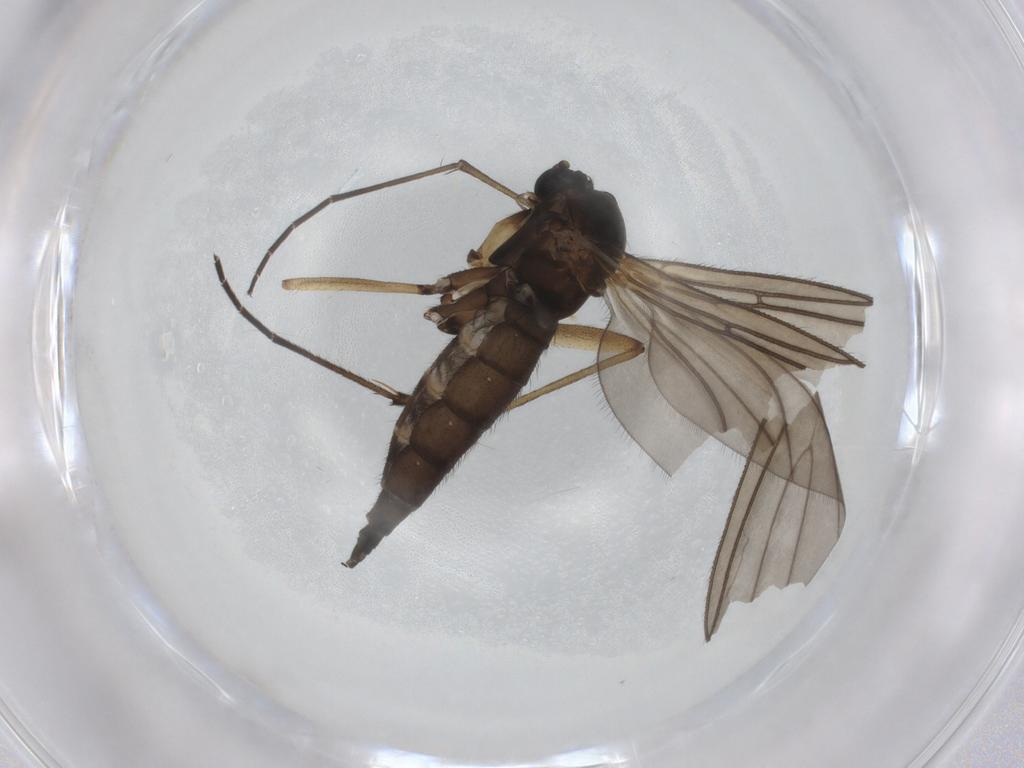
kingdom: Animalia
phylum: Arthropoda
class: Insecta
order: Diptera
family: Sciaridae
